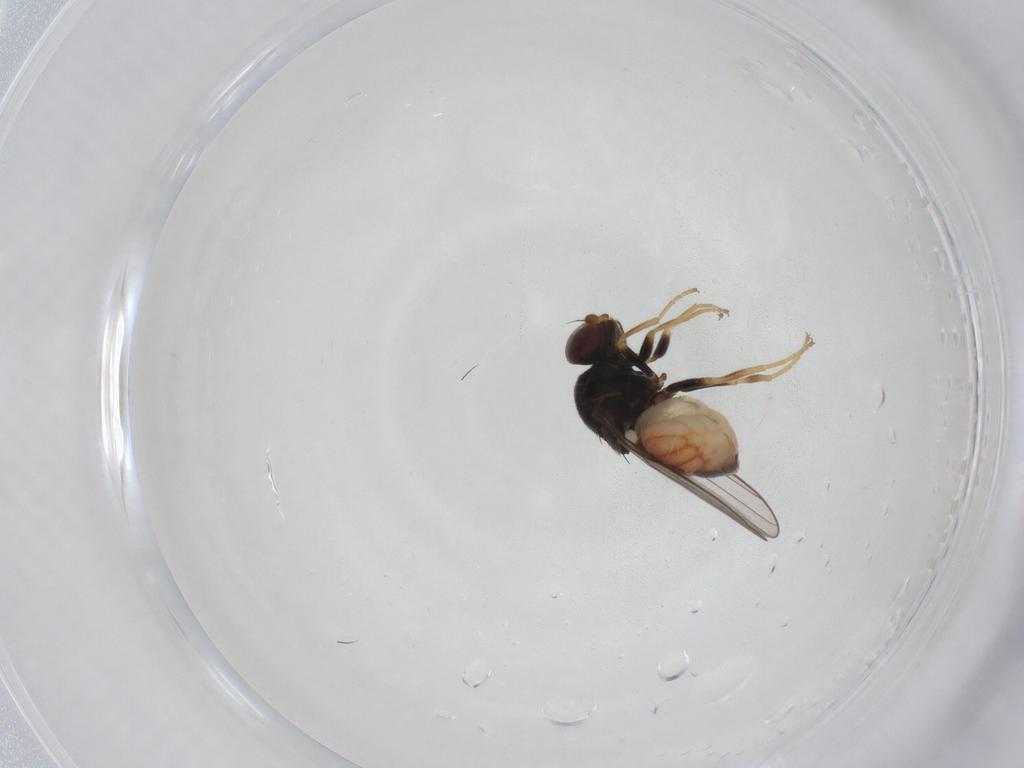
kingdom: Animalia
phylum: Arthropoda
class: Insecta
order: Diptera
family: Chloropidae
